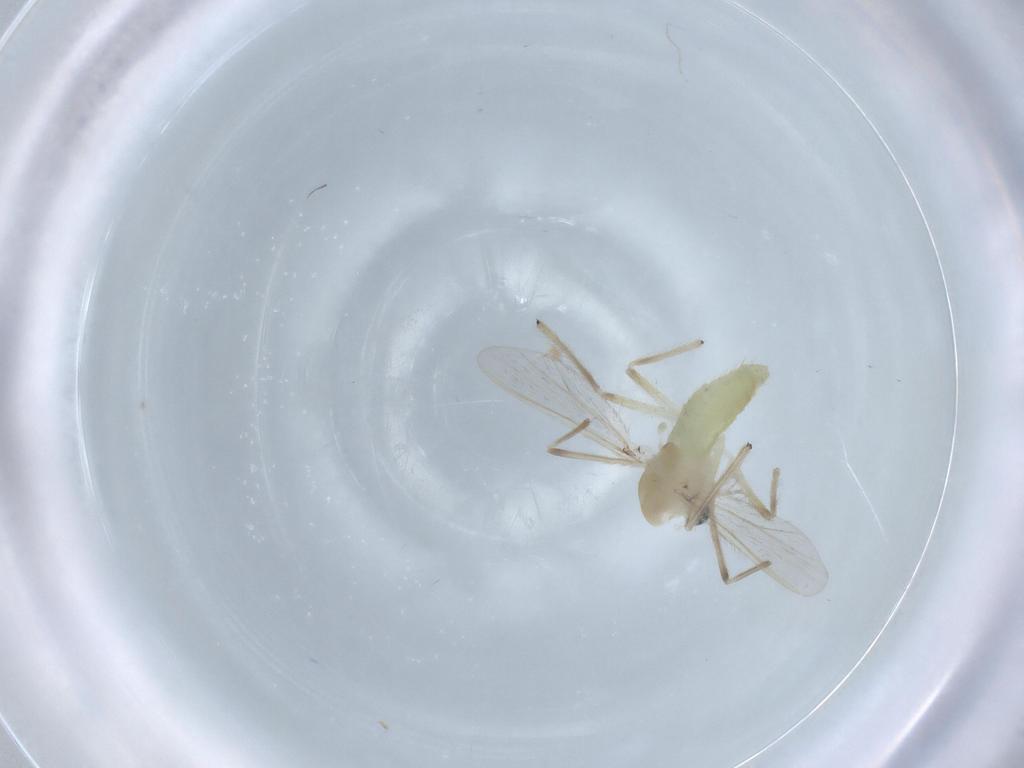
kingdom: Animalia
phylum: Arthropoda
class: Insecta
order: Diptera
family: Chironomidae
